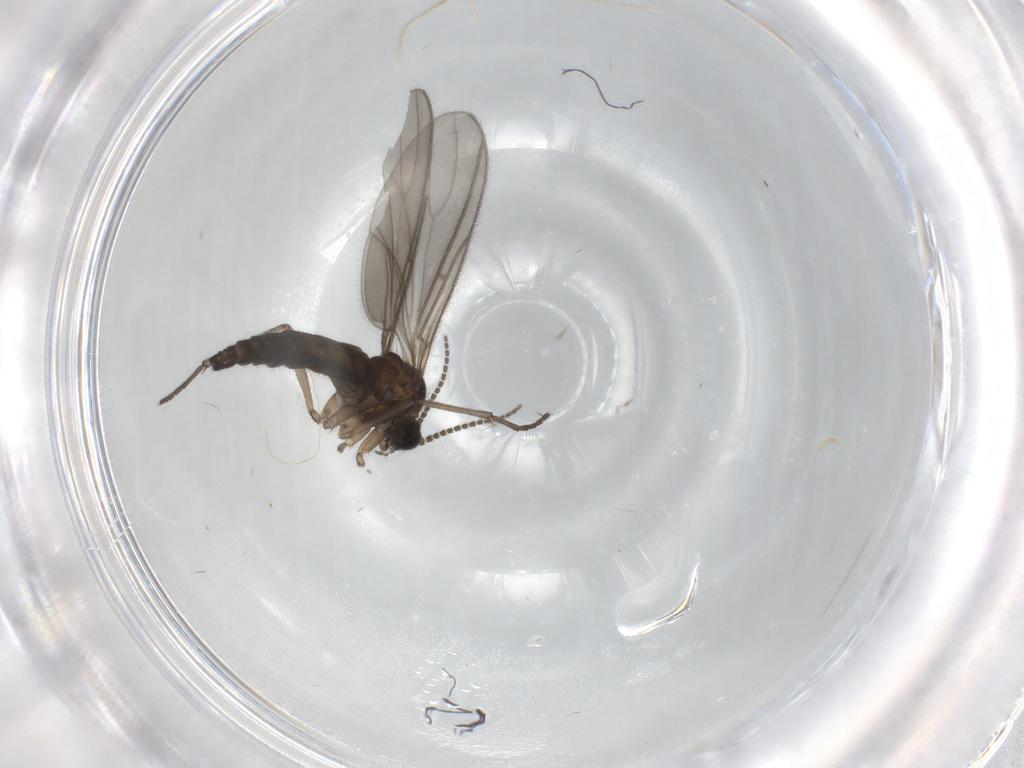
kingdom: Animalia
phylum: Arthropoda
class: Insecta
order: Diptera
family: Sciaridae
